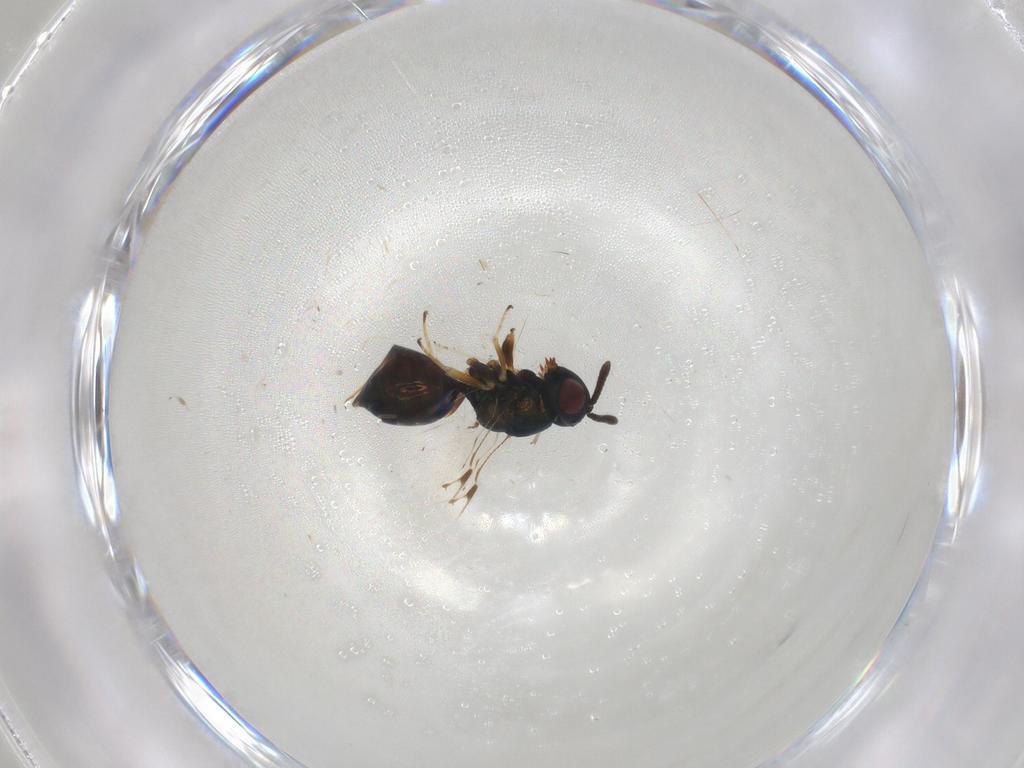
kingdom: Animalia
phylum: Arthropoda
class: Insecta
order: Hymenoptera
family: Pteromalidae
